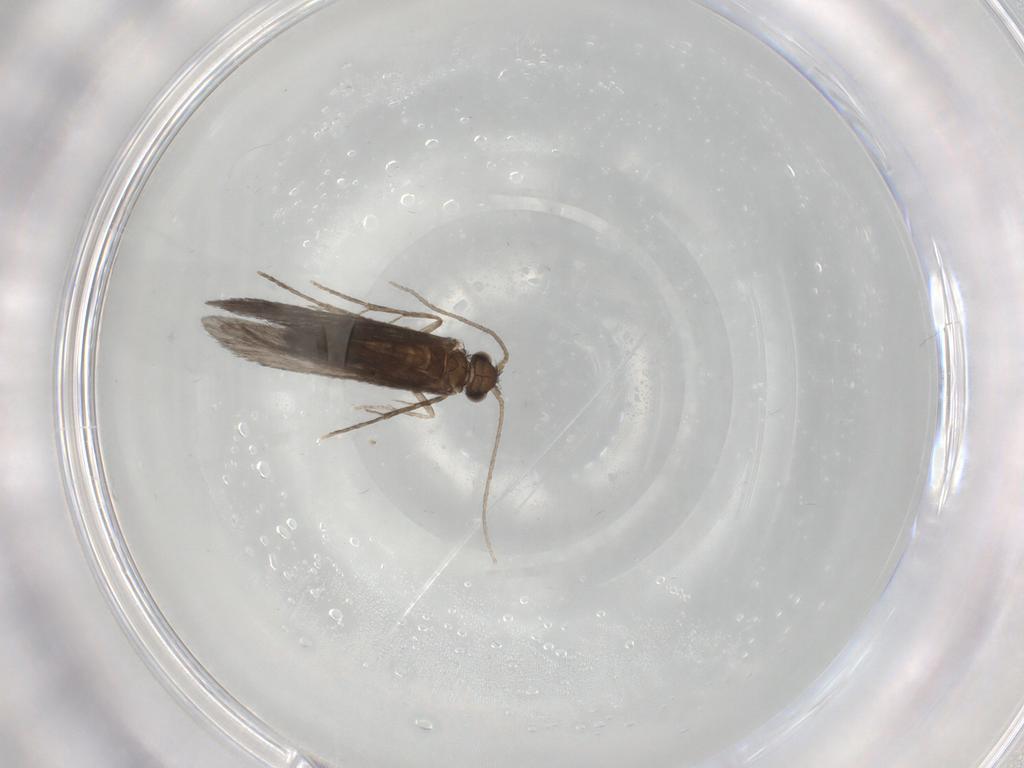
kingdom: Animalia
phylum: Arthropoda
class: Insecta
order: Trichoptera
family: Xiphocentronidae
